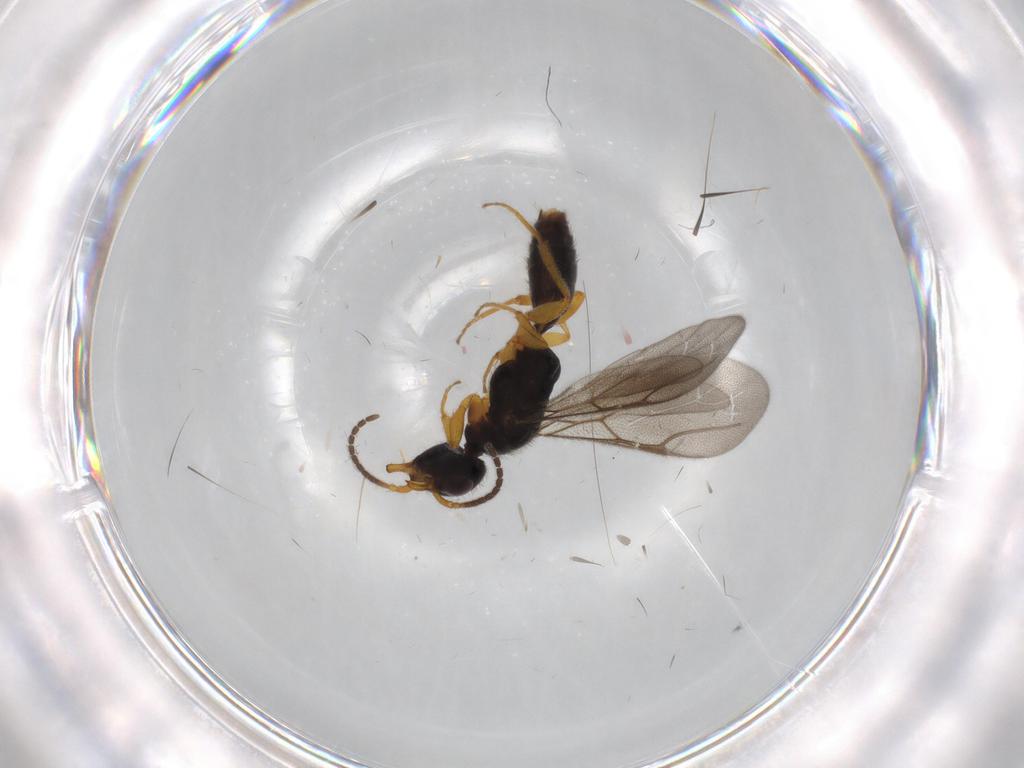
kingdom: Animalia
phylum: Arthropoda
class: Insecta
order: Hymenoptera
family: Bethylidae
